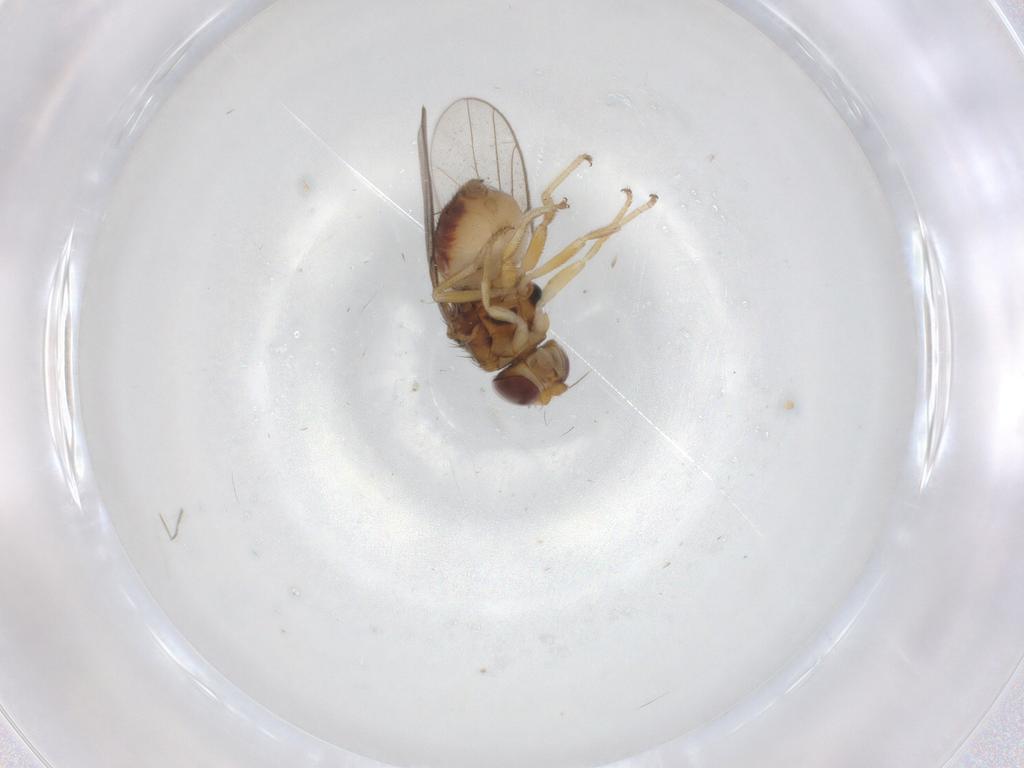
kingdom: Animalia
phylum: Arthropoda
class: Insecta
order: Diptera
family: Chloropidae
